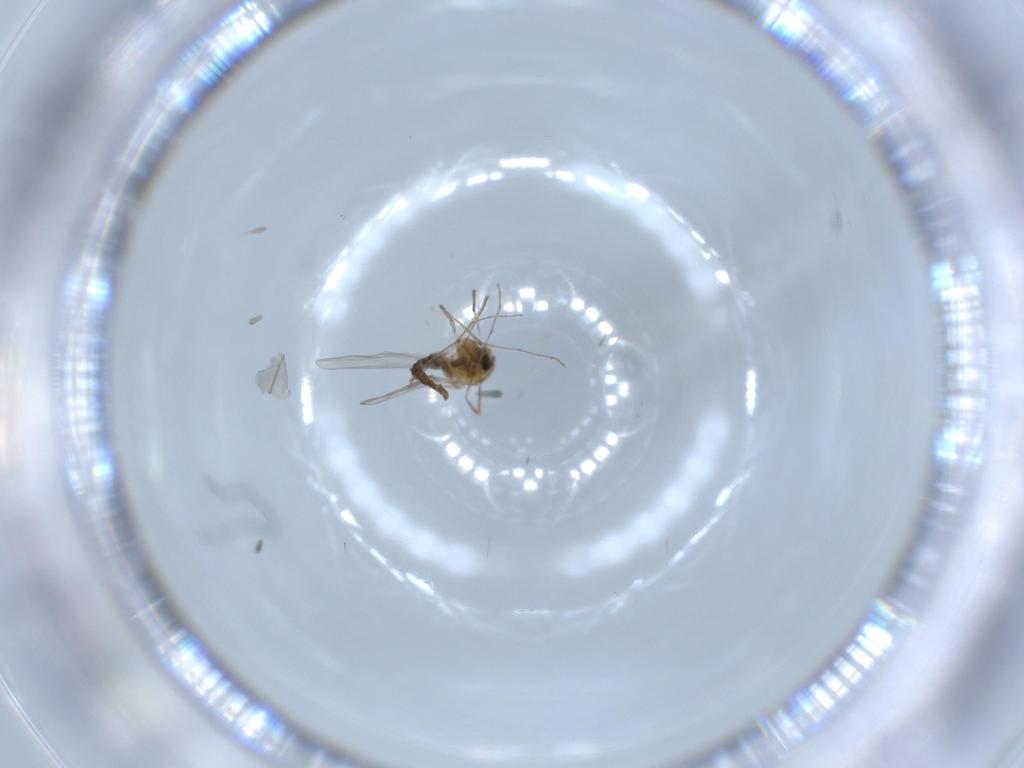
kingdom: Animalia
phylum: Arthropoda
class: Insecta
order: Diptera
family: Chironomidae
